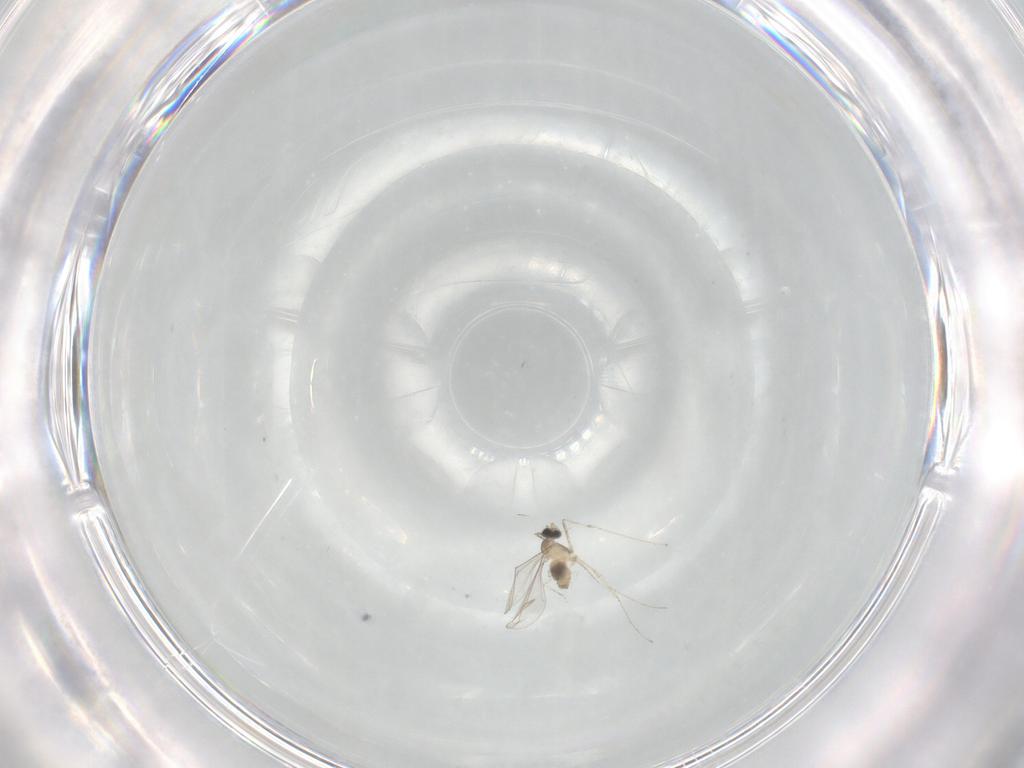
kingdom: Animalia
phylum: Arthropoda
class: Insecta
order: Diptera
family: Cecidomyiidae
